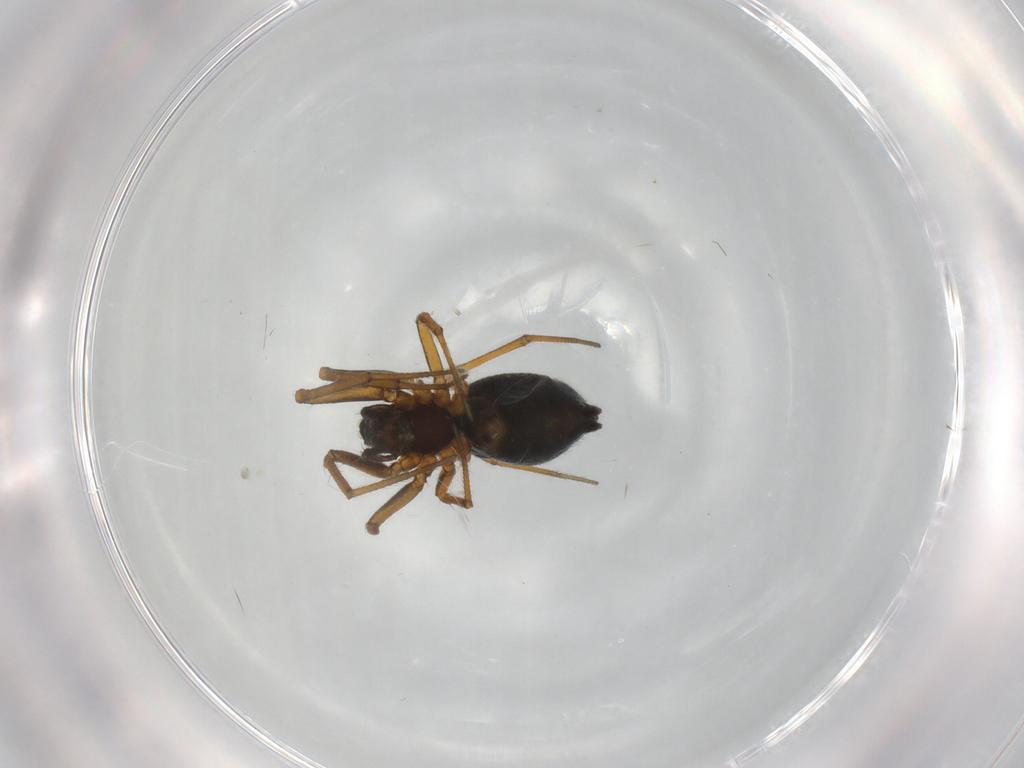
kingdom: Animalia
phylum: Arthropoda
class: Arachnida
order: Araneae
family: Linyphiidae
